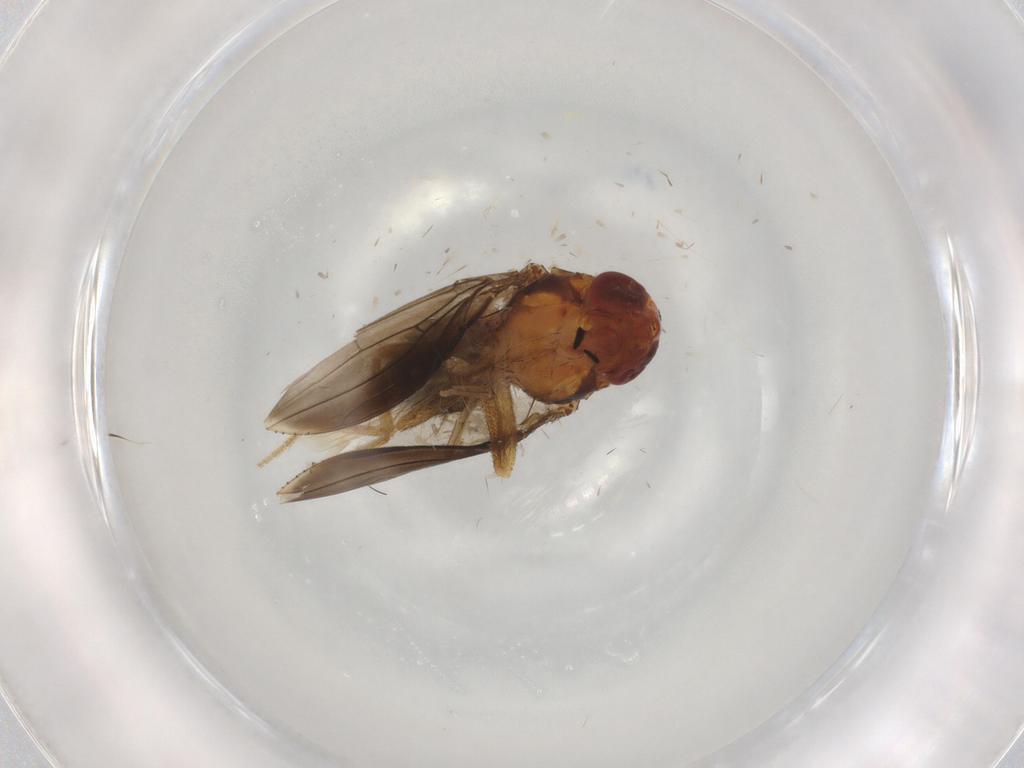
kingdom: Animalia
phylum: Arthropoda
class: Insecta
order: Diptera
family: Drosophilidae
